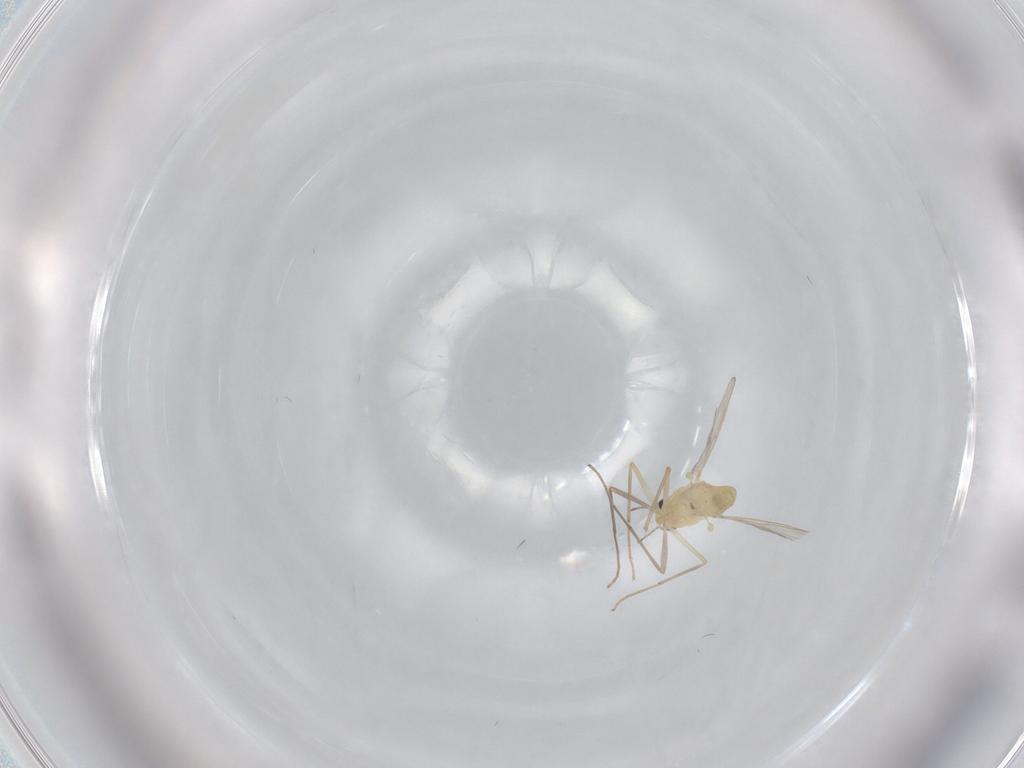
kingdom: Animalia
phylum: Arthropoda
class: Insecta
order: Diptera
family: Chironomidae
